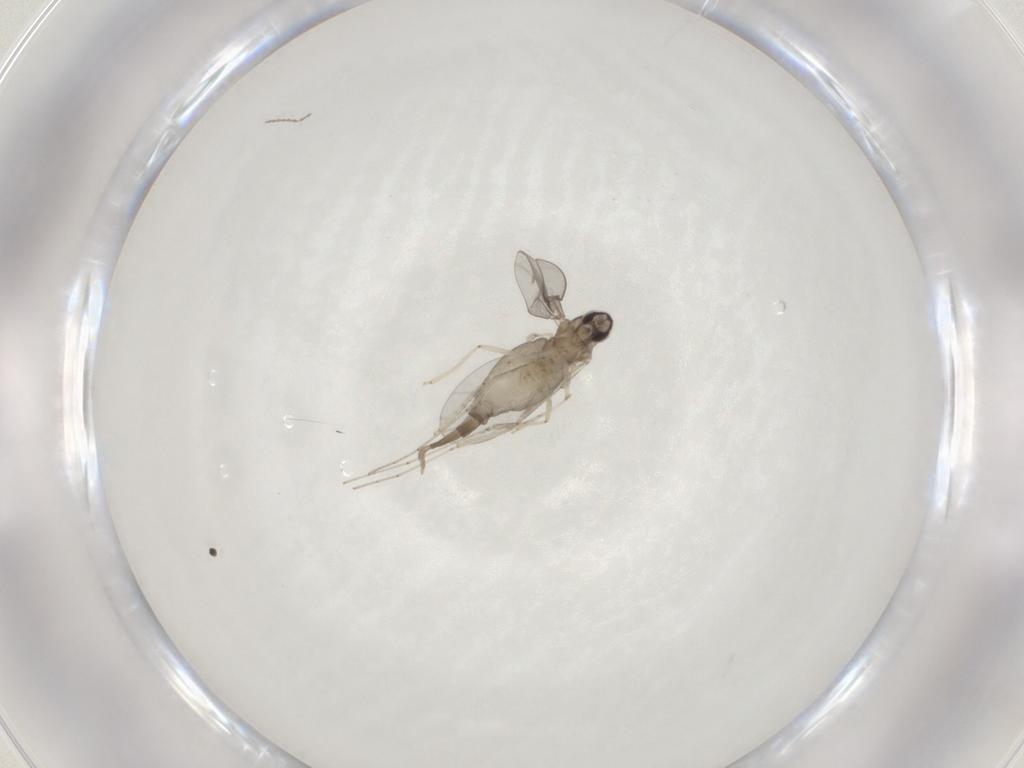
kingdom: Animalia
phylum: Arthropoda
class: Insecta
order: Diptera
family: Cecidomyiidae
